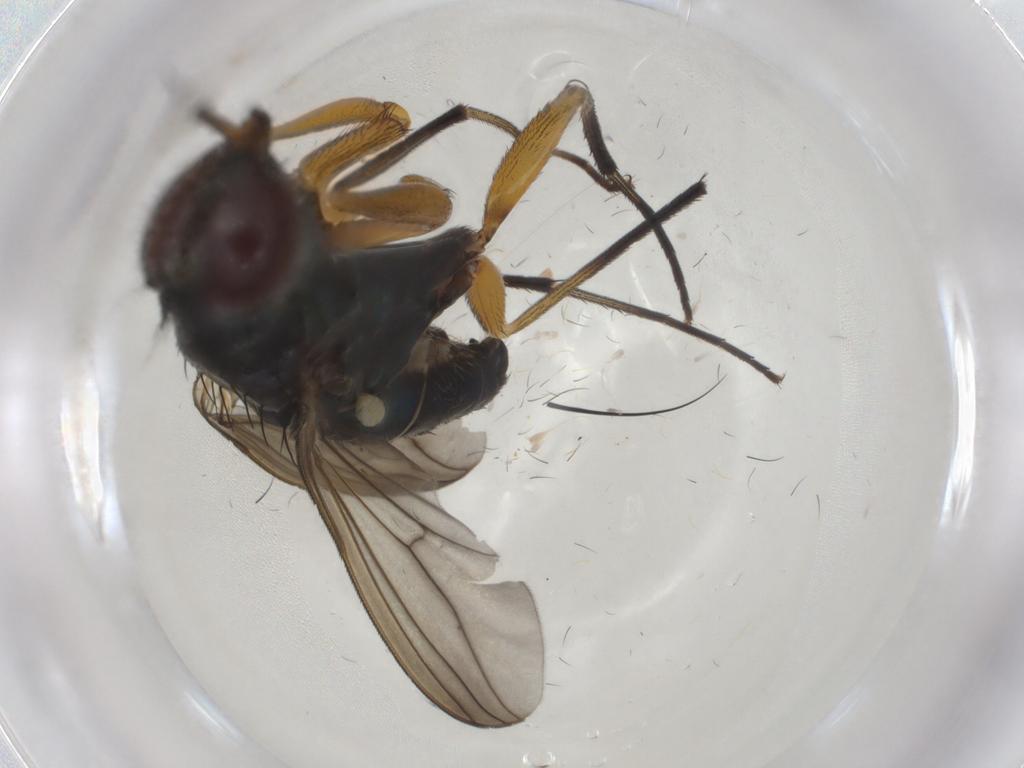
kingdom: Animalia
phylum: Arthropoda
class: Insecta
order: Diptera
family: Dolichopodidae
